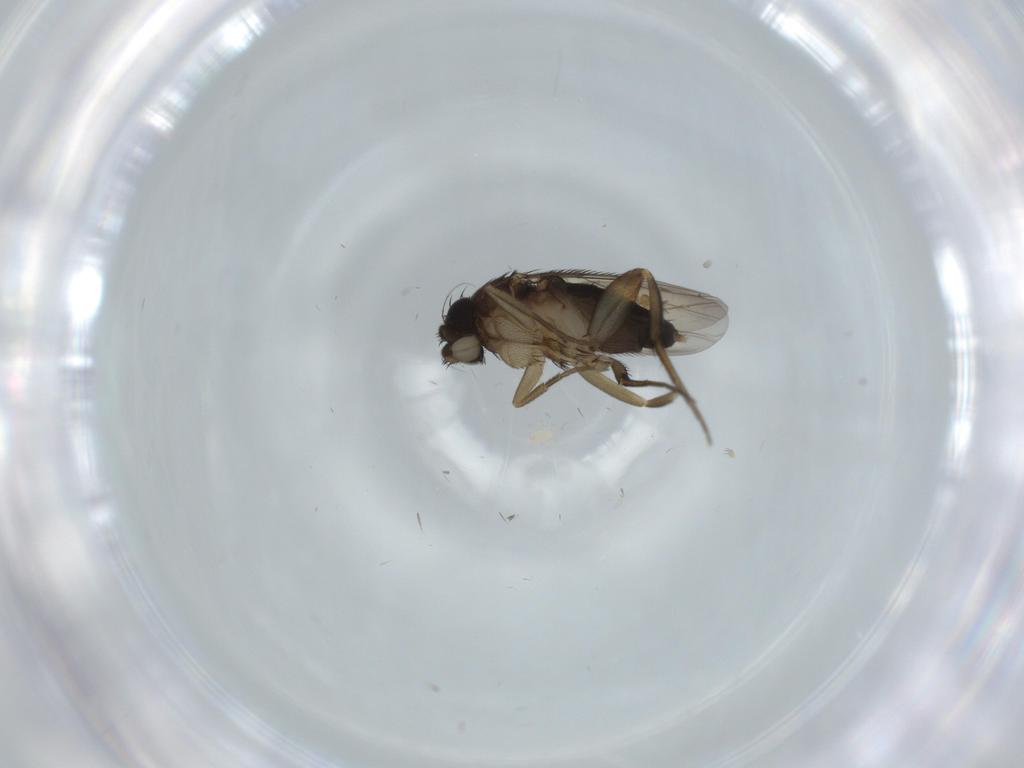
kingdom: Animalia
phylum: Arthropoda
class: Insecta
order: Diptera
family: Phoridae
